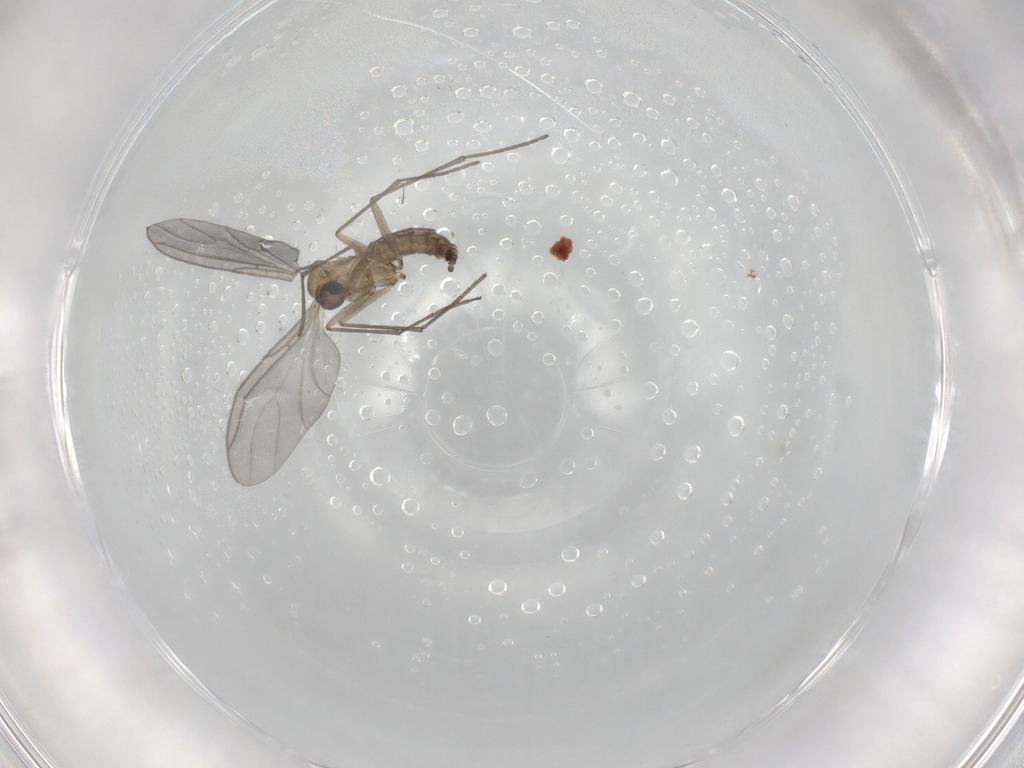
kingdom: Animalia
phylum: Arthropoda
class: Insecta
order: Diptera
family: Sciaridae
